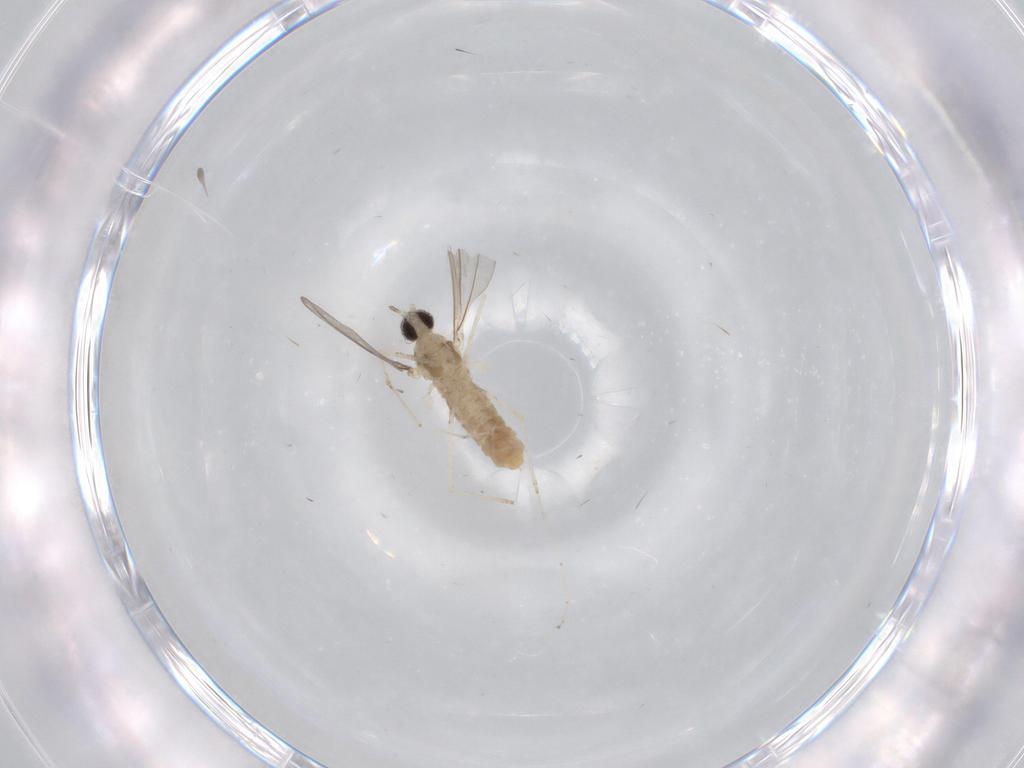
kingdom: Animalia
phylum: Arthropoda
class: Insecta
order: Diptera
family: Cecidomyiidae
